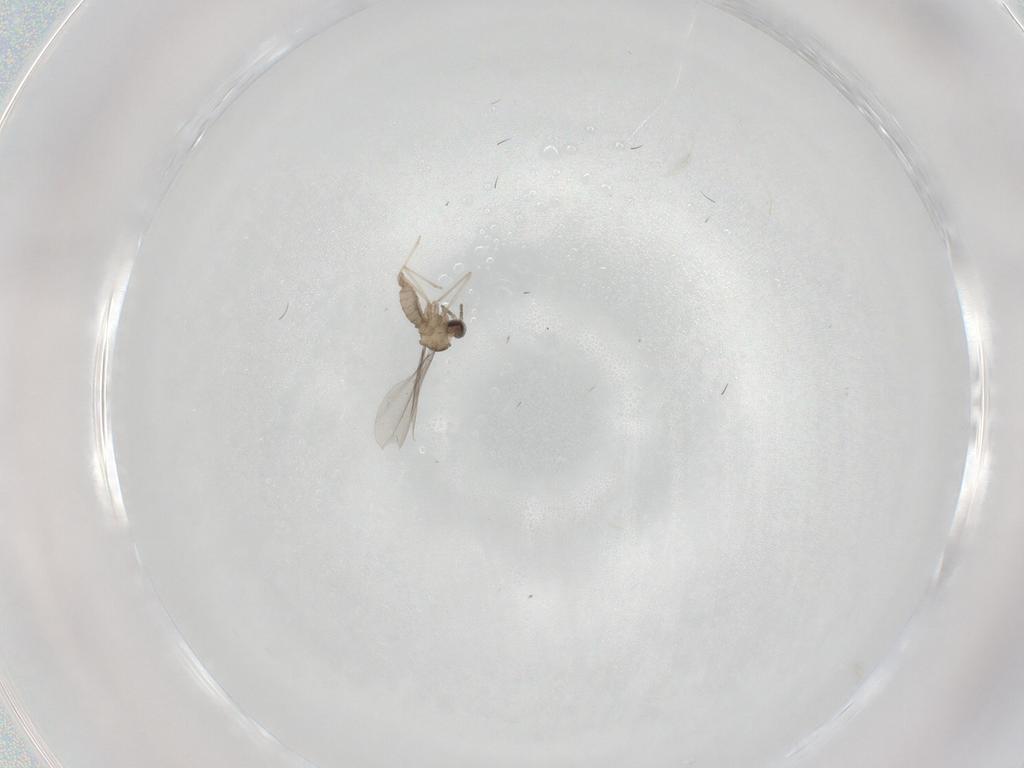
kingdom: Animalia
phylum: Arthropoda
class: Insecta
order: Diptera
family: Cecidomyiidae
